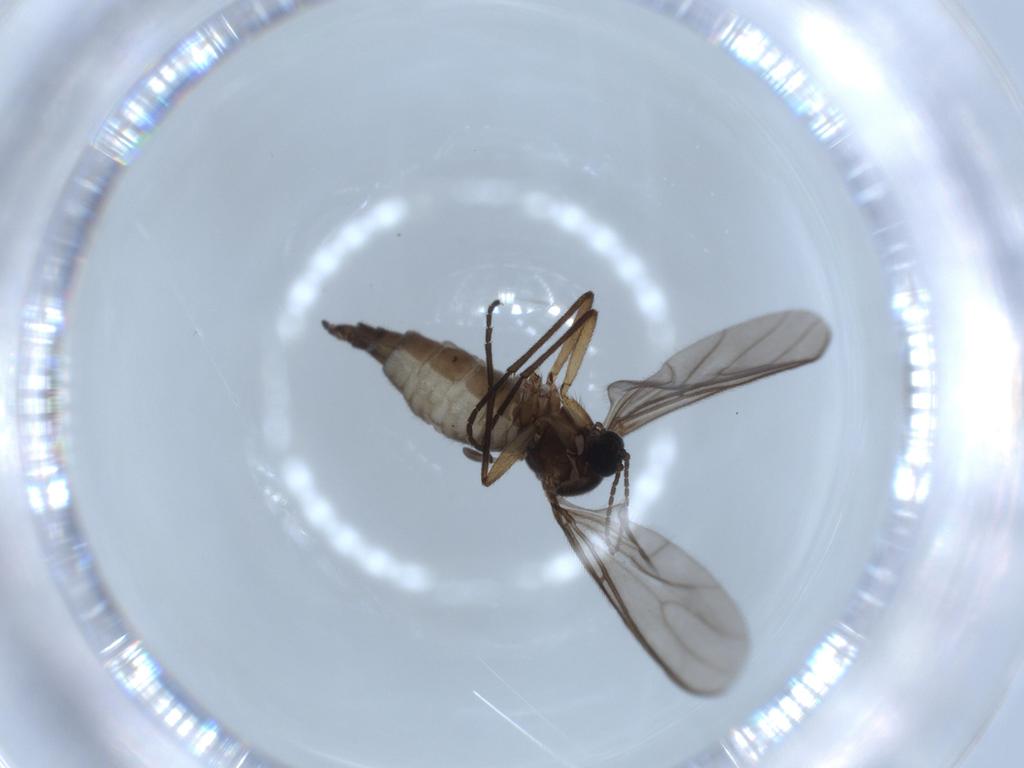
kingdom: Animalia
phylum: Arthropoda
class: Insecta
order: Diptera
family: Sciaridae
